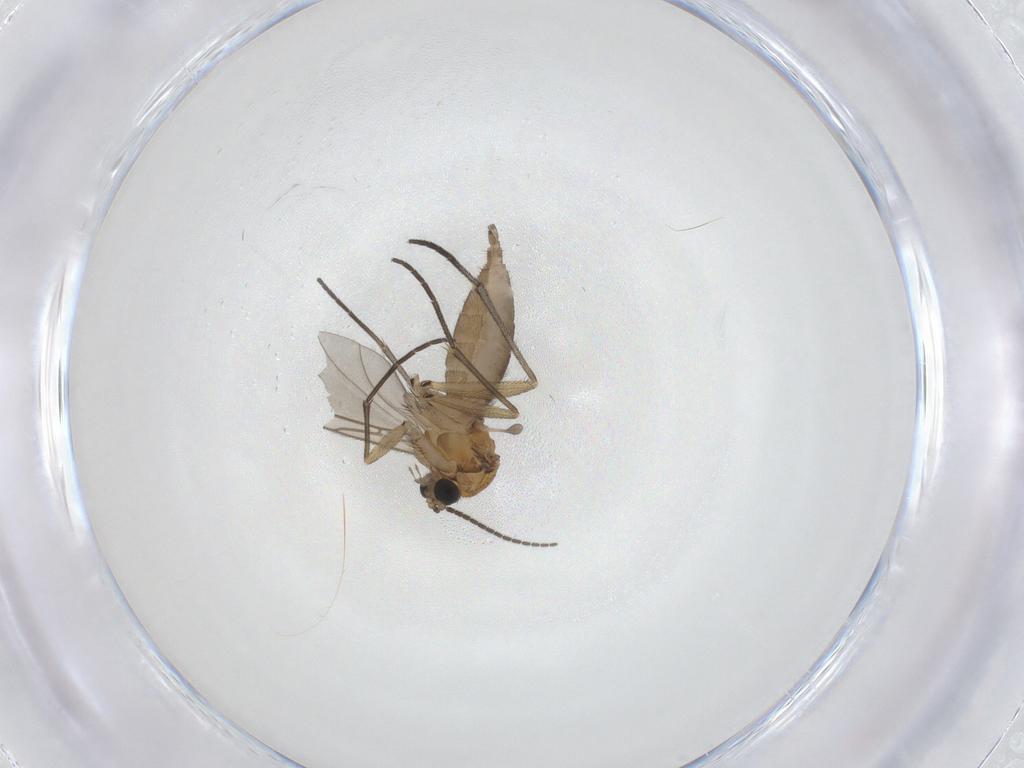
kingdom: Animalia
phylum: Arthropoda
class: Insecta
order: Diptera
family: Sciaridae
